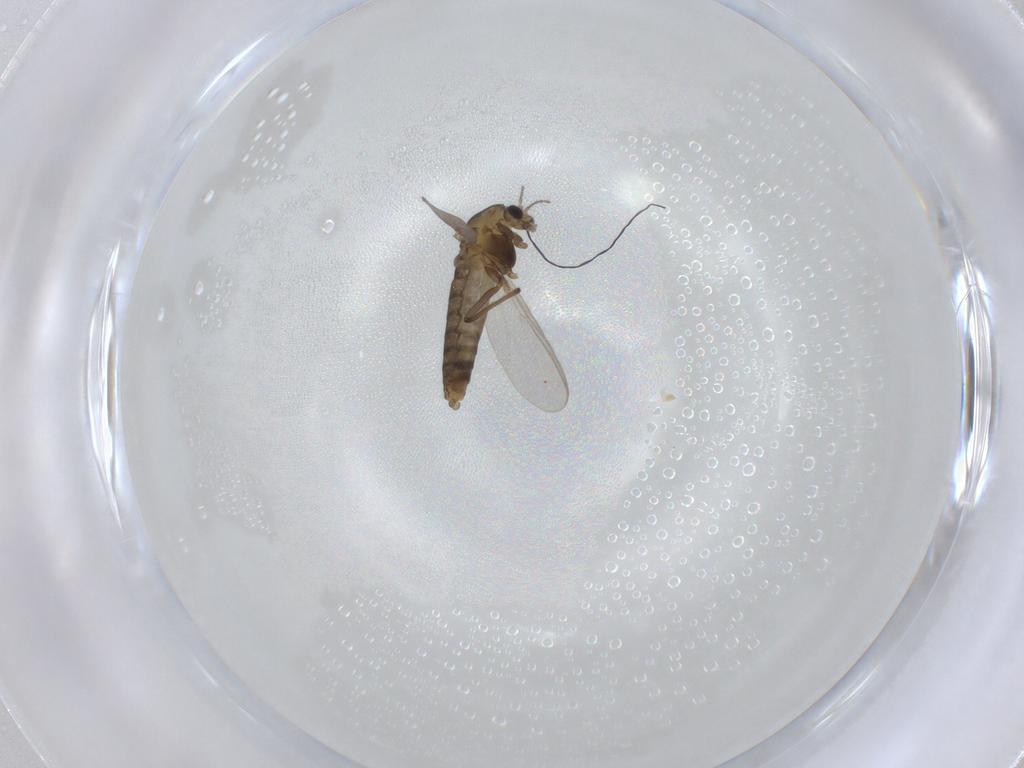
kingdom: Animalia
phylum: Arthropoda
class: Insecta
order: Diptera
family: Chironomidae
